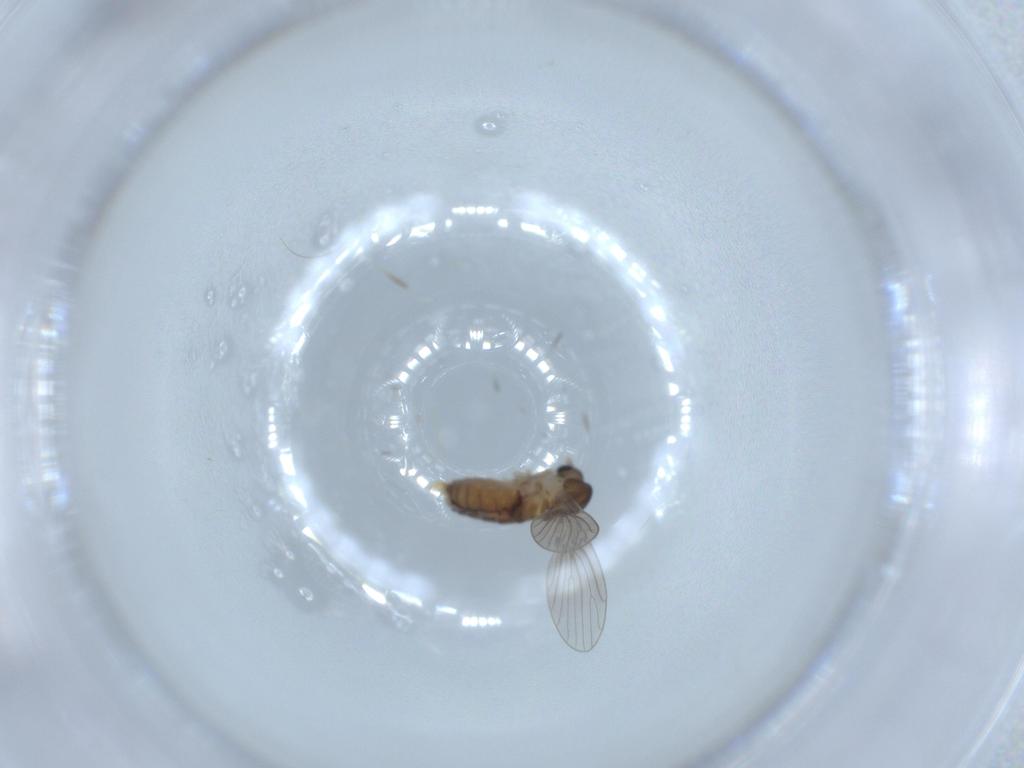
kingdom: Animalia
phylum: Arthropoda
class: Insecta
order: Diptera
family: Psychodidae
